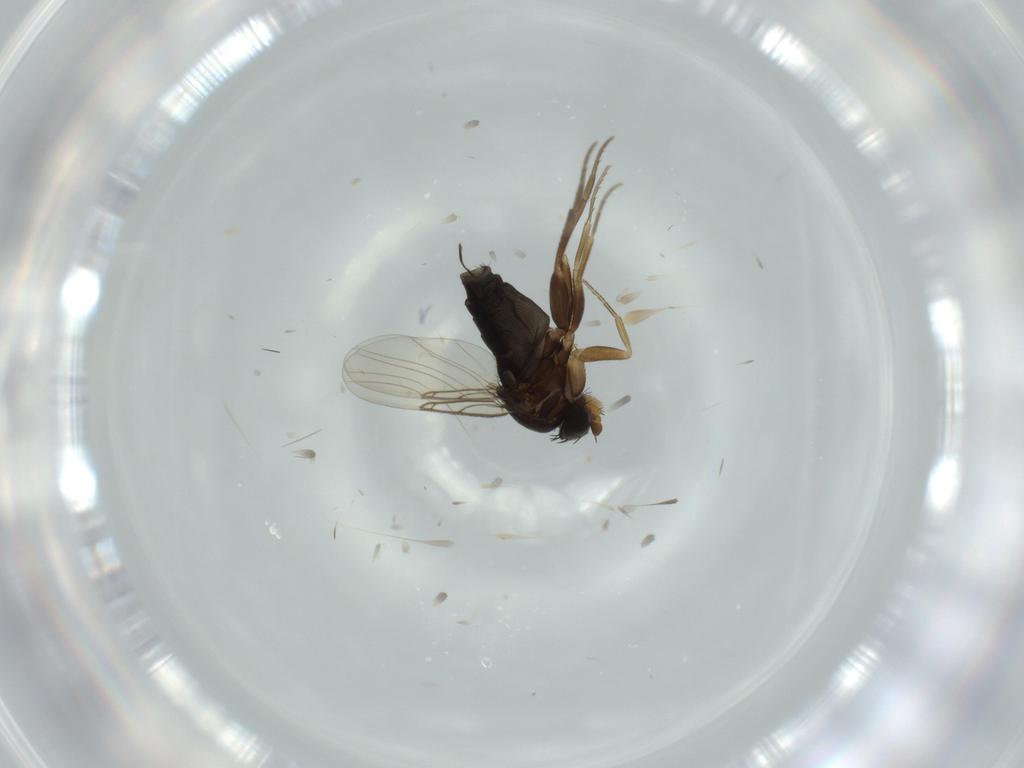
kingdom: Animalia
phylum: Arthropoda
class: Insecta
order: Diptera
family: Phoridae
